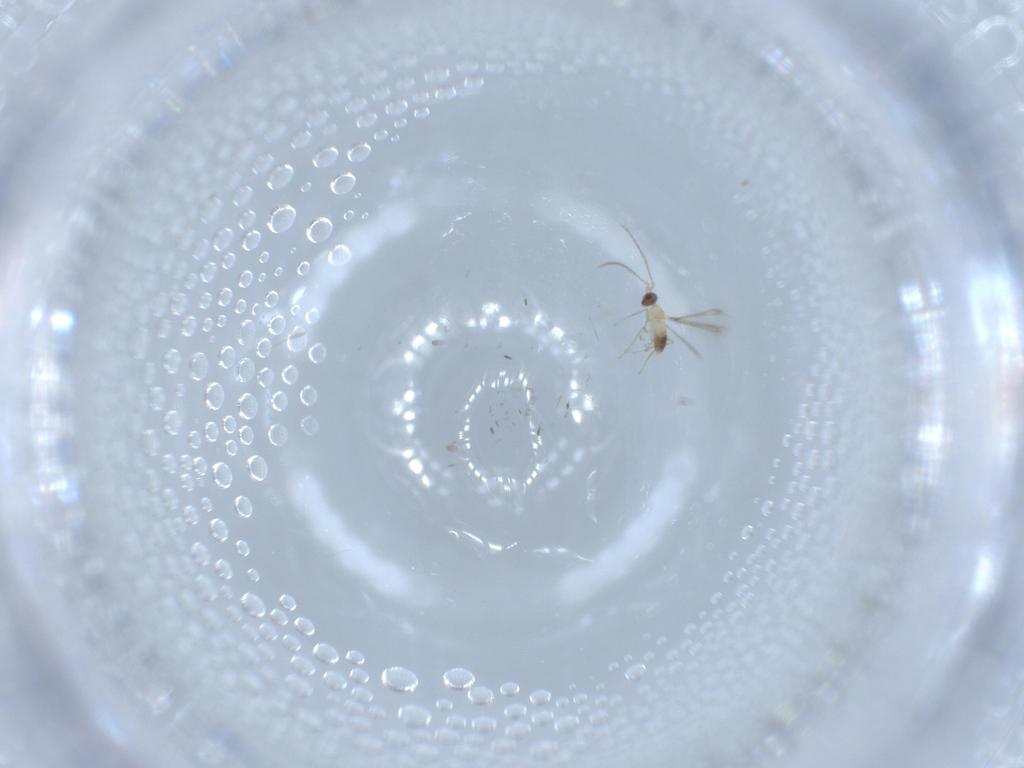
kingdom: Animalia
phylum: Arthropoda
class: Insecta
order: Hymenoptera
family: Mymaridae
